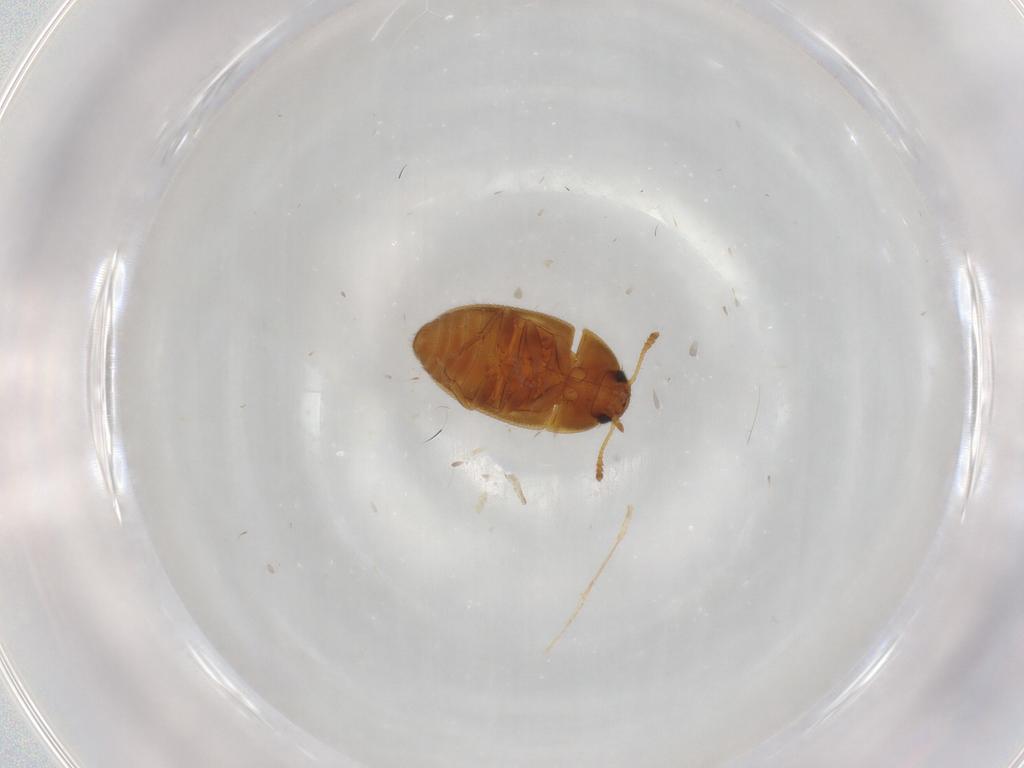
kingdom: Animalia
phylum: Arthropoda
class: Insecta
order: Coleoptera
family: Mycetophagidae
